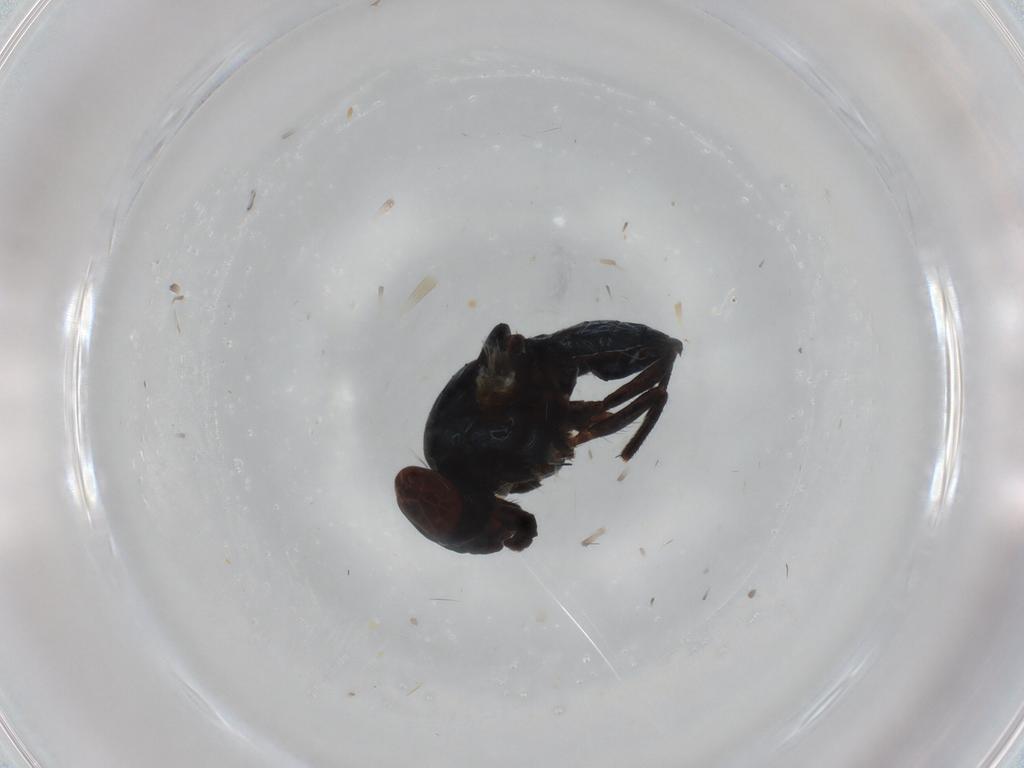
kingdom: Animalia
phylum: Arthropoda
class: Insecta
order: Diptera
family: Lonchaeidae
